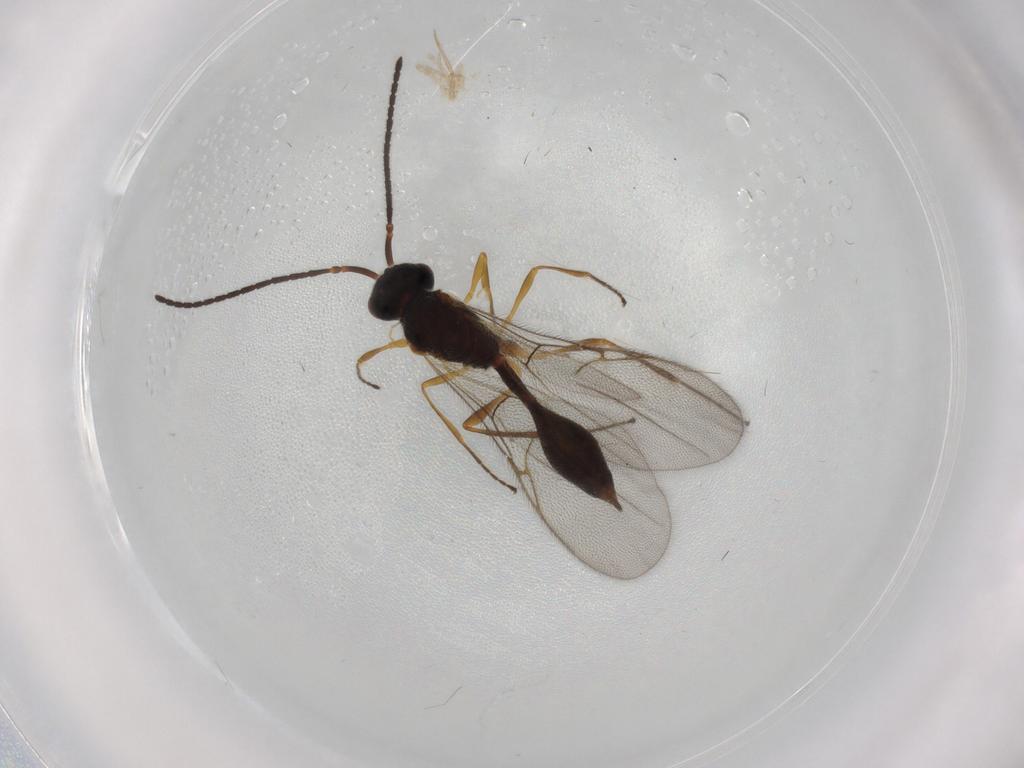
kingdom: Animalia
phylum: Arthropoda
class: Insecta
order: Hymenoptera
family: Diapriidae
